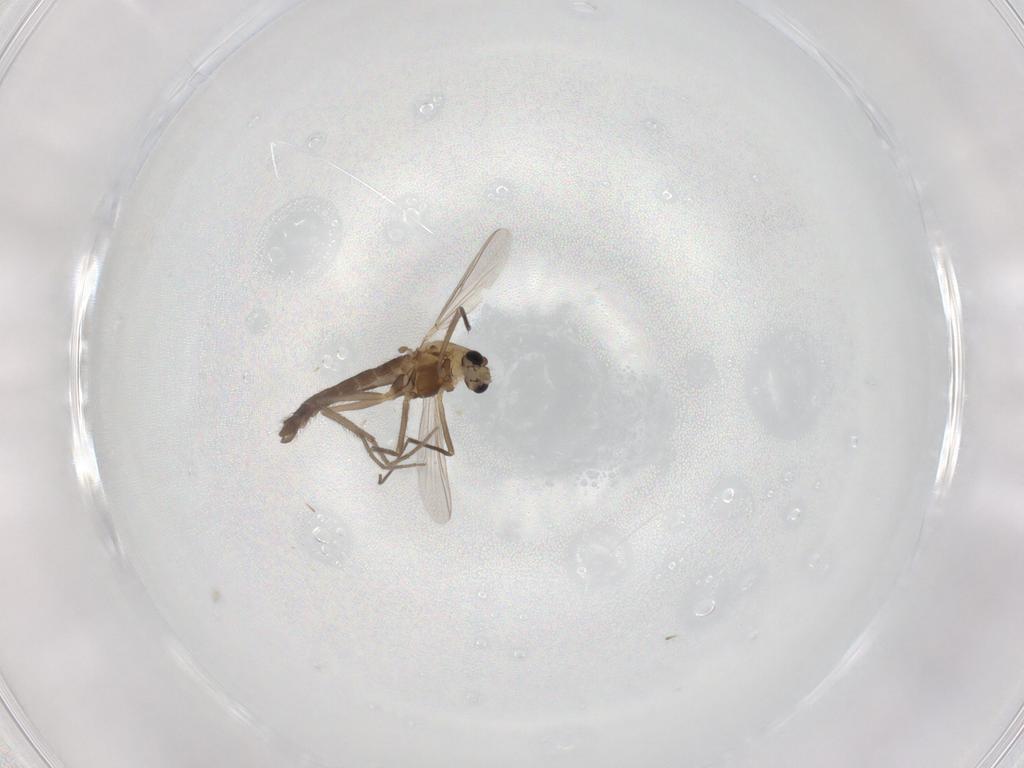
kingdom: Animalia
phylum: Arthropoda
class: Insecta
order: Diptera
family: Chironomidae
